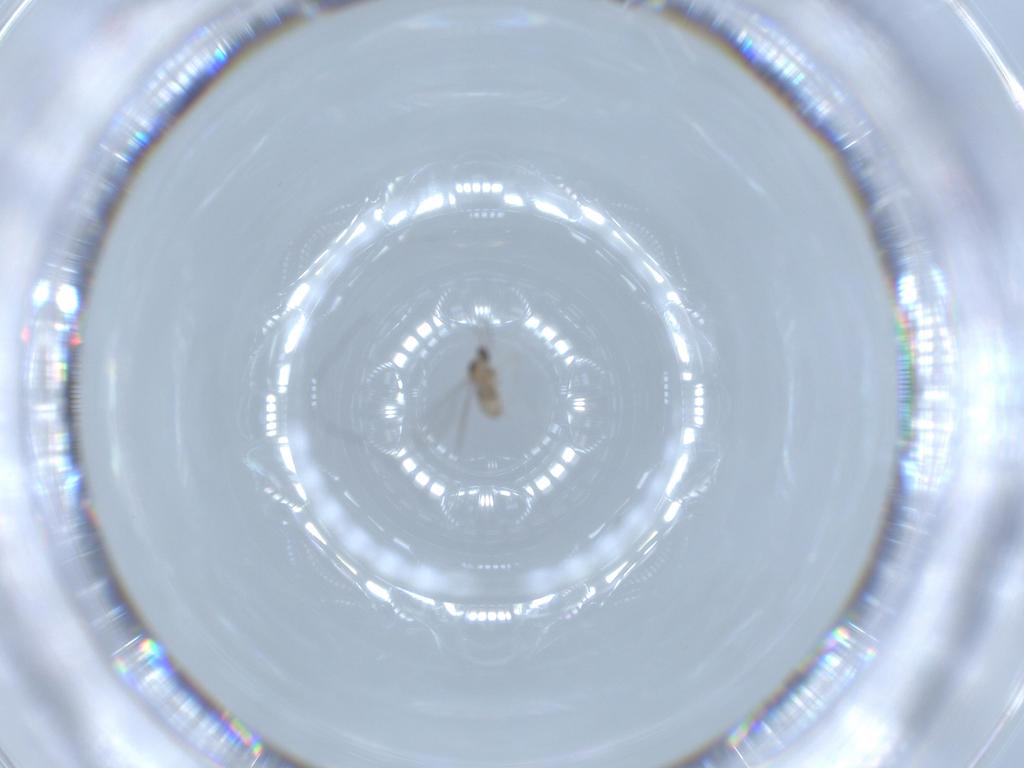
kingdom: Animalia
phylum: Arthropoda
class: Insecta
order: Diptera
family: Cecidomyiidae
